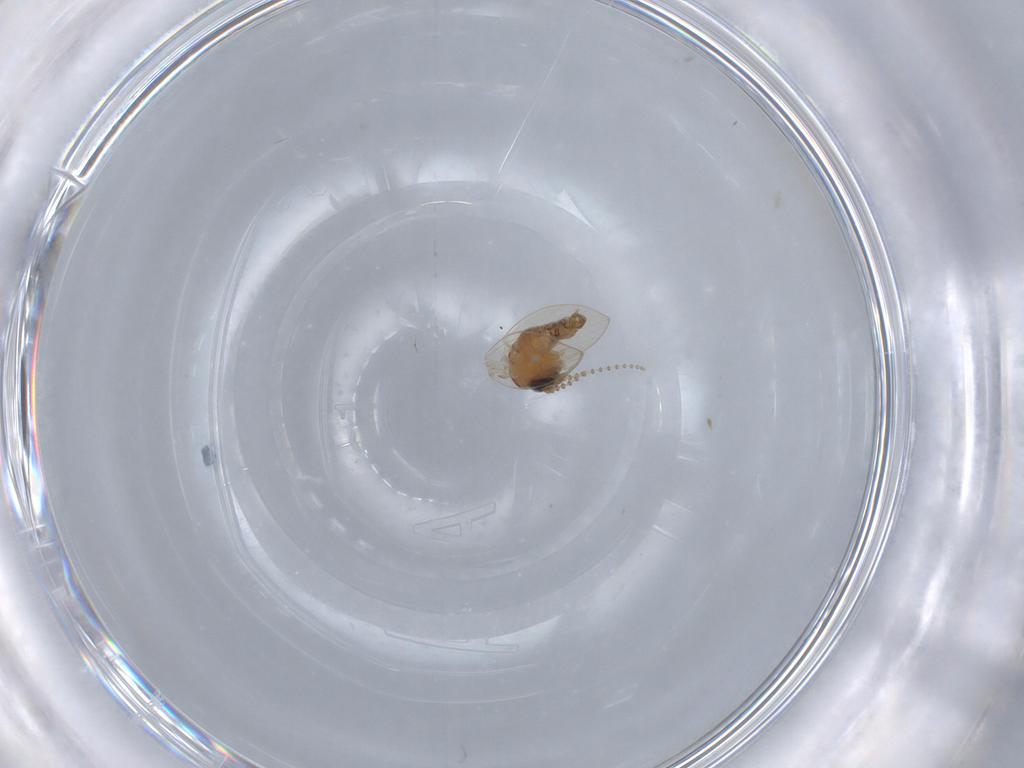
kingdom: Animalia
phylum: Arthropoda
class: Insecta
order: Diptera
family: Psychodidae
